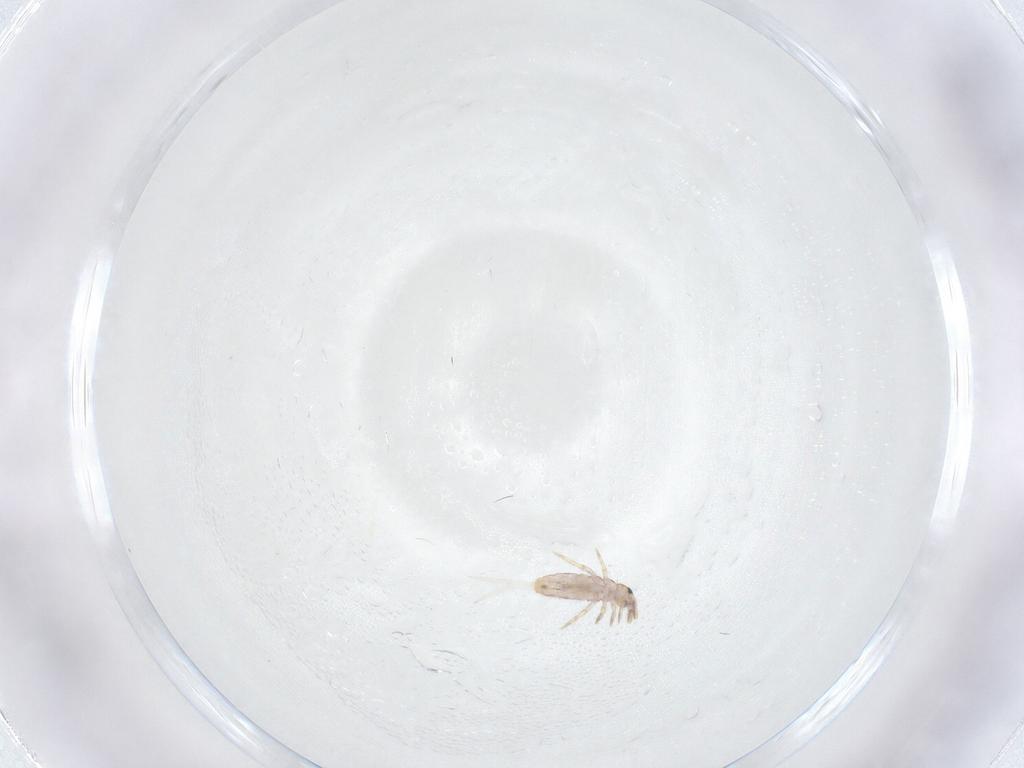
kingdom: Animalia
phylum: Arthropoda
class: Collembola
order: Entomobryomorpha
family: Entomobryidae
